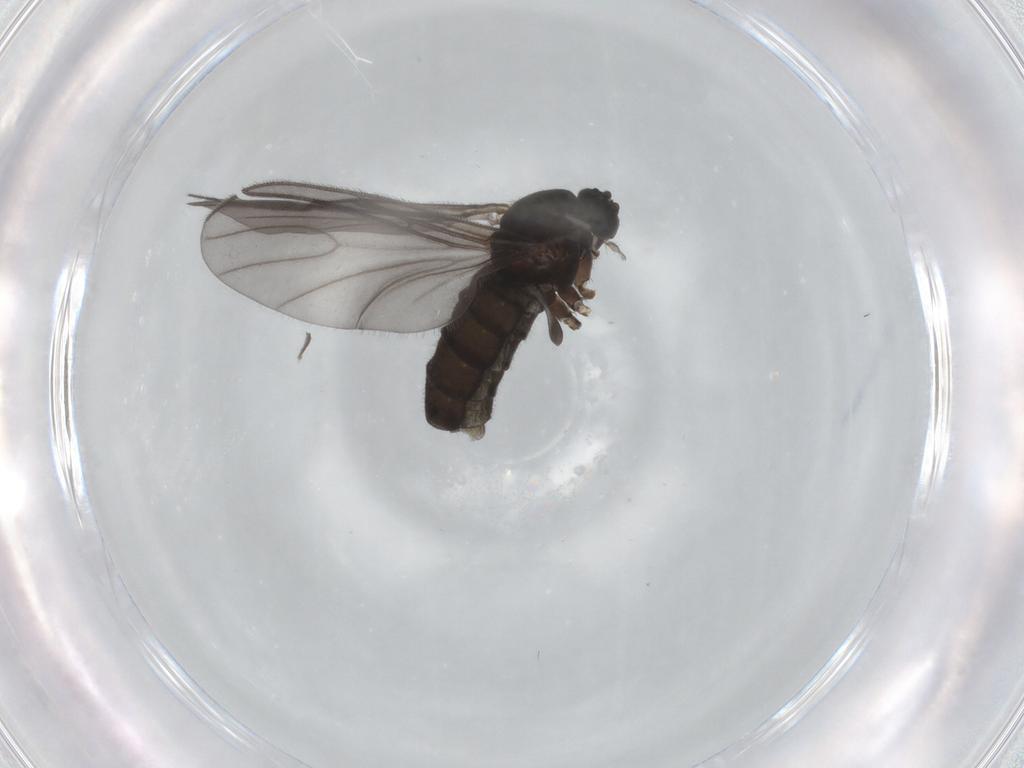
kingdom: Animalia
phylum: Arthropoda
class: Insecta
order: Diptera
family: Sciaridae
